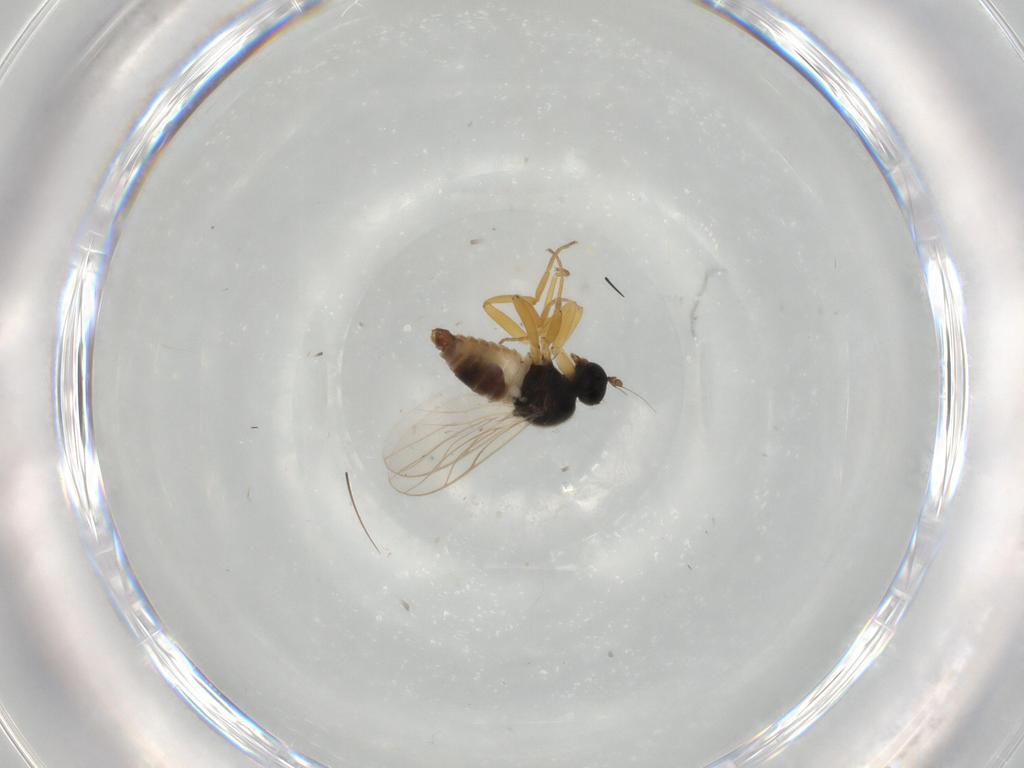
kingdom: Animalia
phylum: Arthropoda
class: Insecta
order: Diptera
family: Hybotidae
